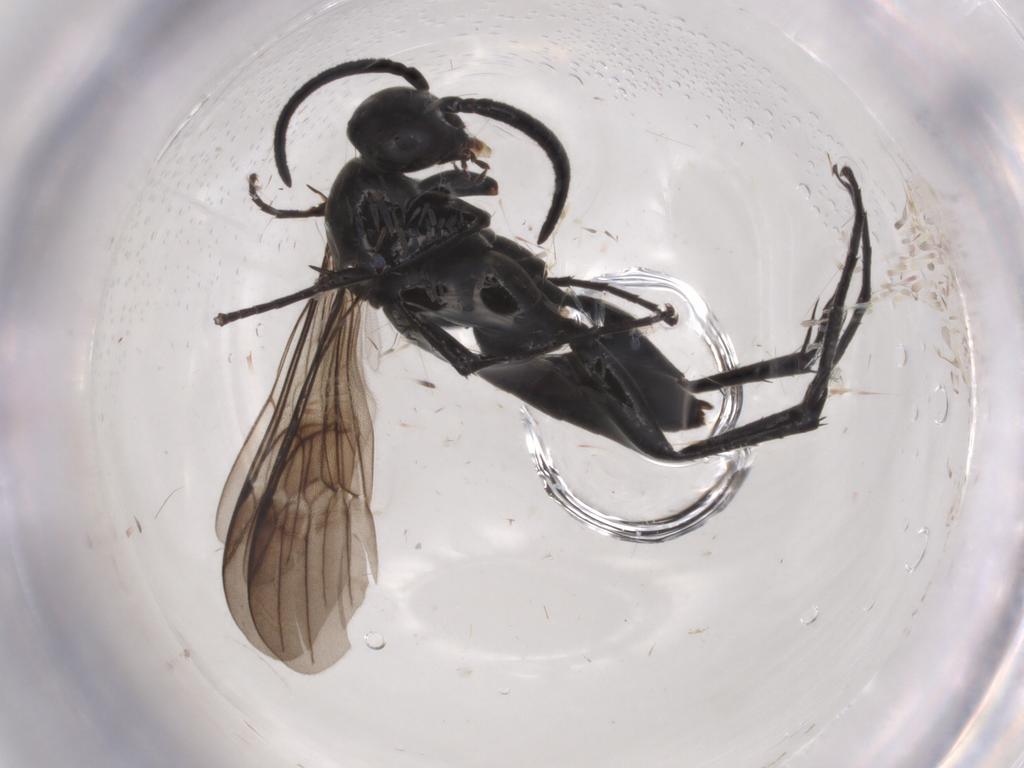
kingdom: Animalia
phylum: Arthropoda
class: Insecta
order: Hymenoptera
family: Pompilidae
